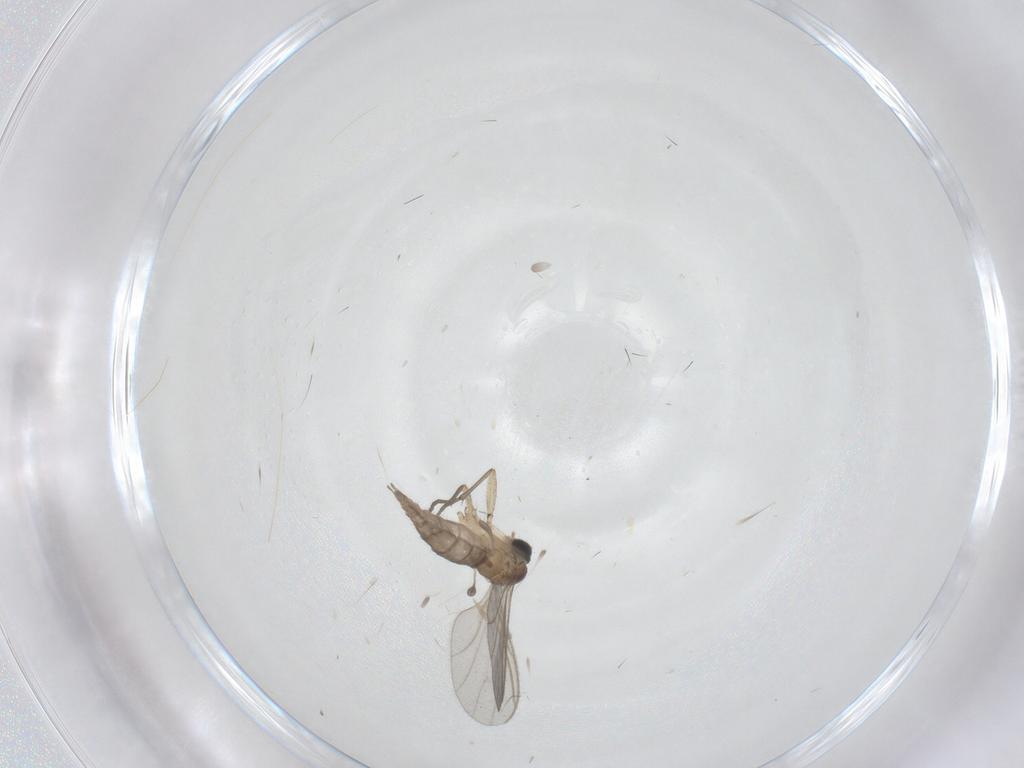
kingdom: Animalia
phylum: Arthropoda
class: Insecta
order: Diptera
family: Sciaridae
